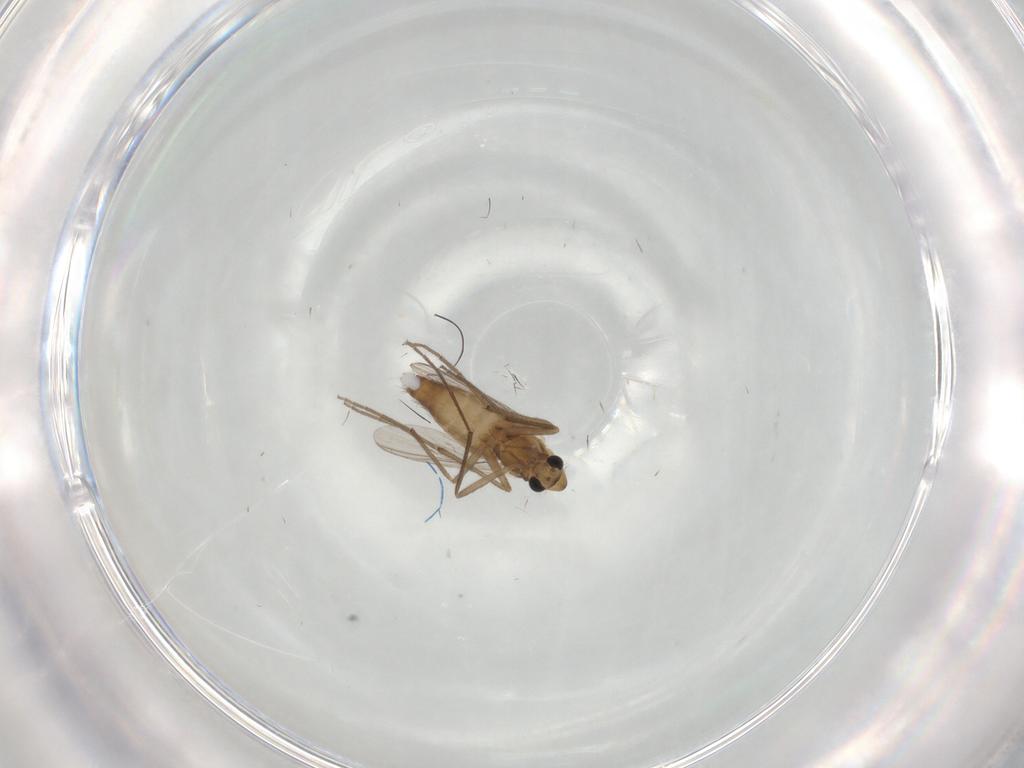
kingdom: Animalia
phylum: Arthropoda
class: Insecta
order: Diptera
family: Chironomidae
